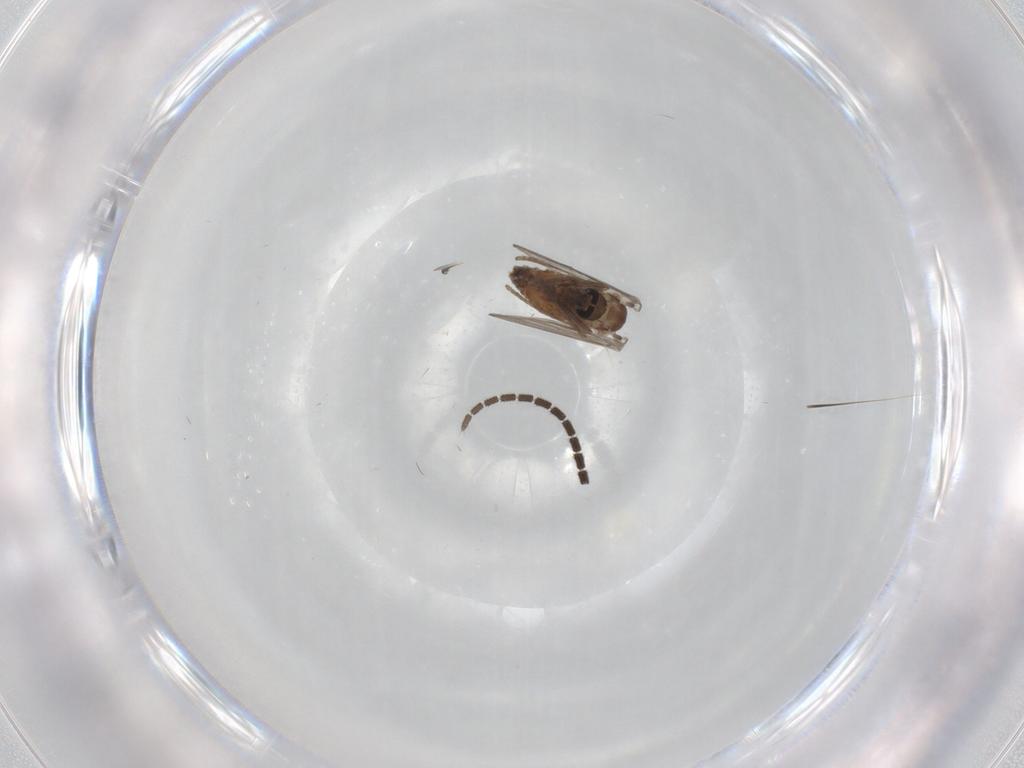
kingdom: Animalia
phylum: Arthropoda
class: Insecta
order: Diptera
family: Sciaridae
